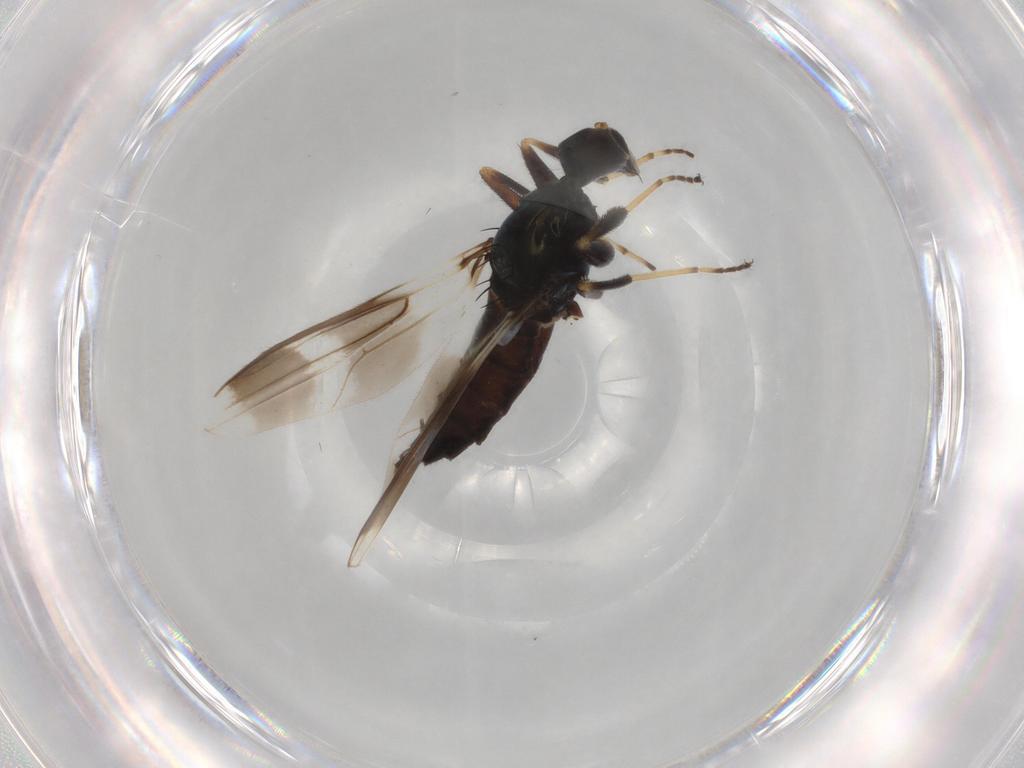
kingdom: Animalia
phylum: Arthropoda
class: Insecta
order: Diptera
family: Hybotidae
